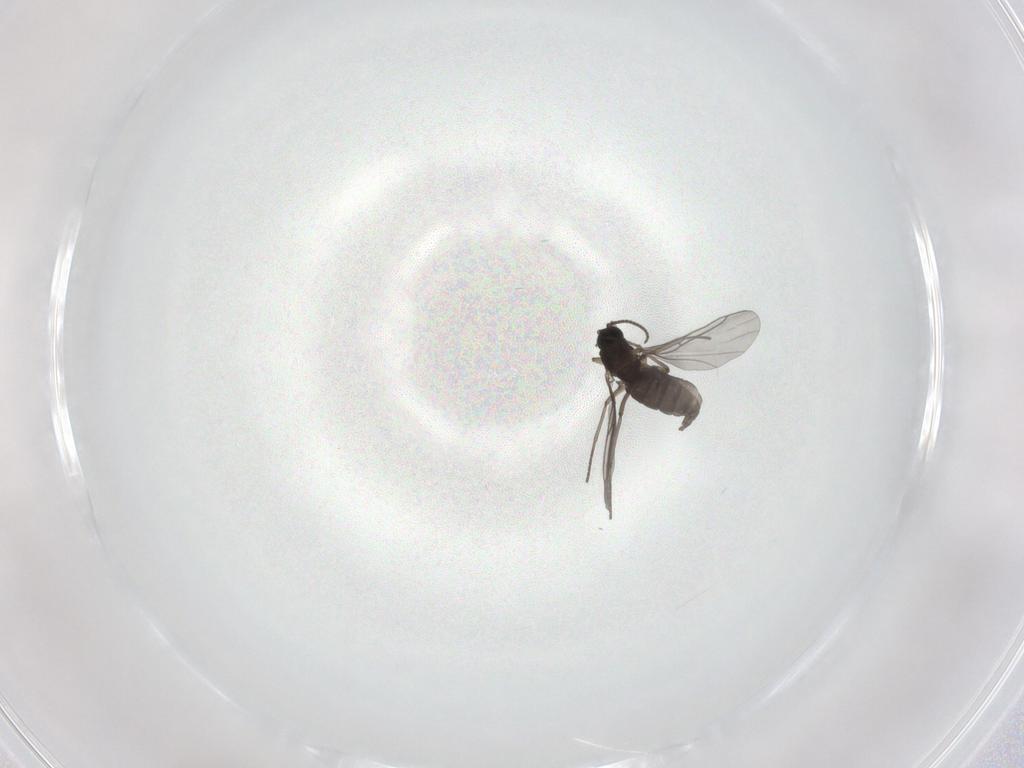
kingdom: Animalia
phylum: Arthropoda
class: Insecta
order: Diptera
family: Sciaridae
